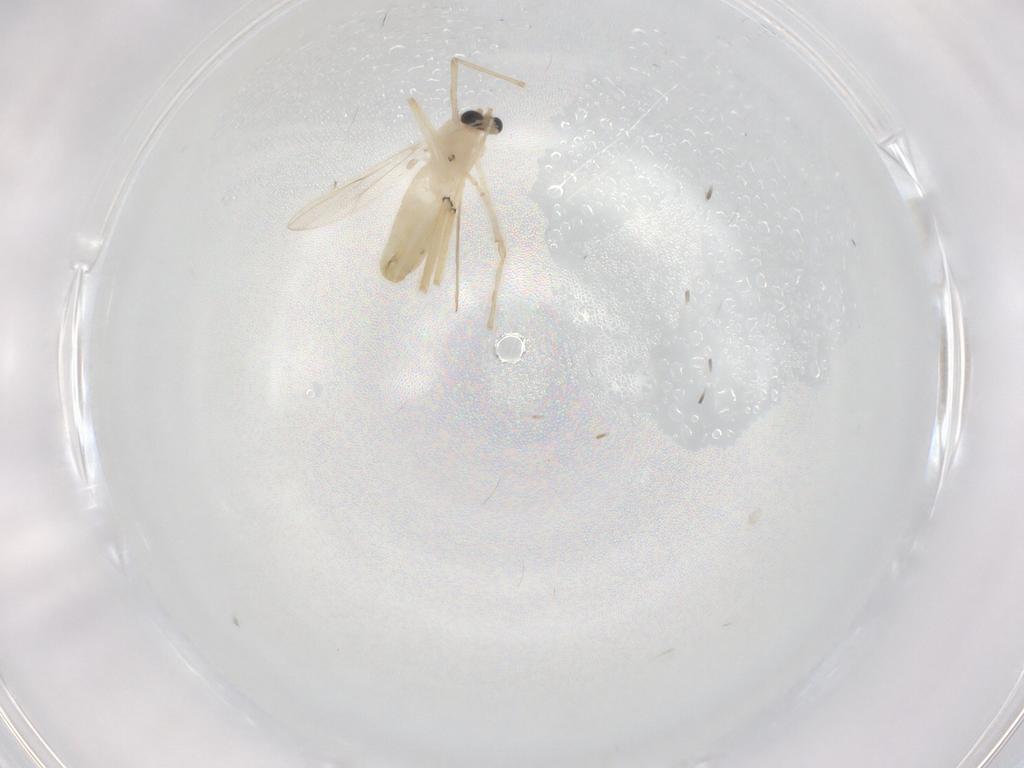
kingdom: Animalia
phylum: Arthropoda
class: Insecta
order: Diptera
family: Chironomidae
